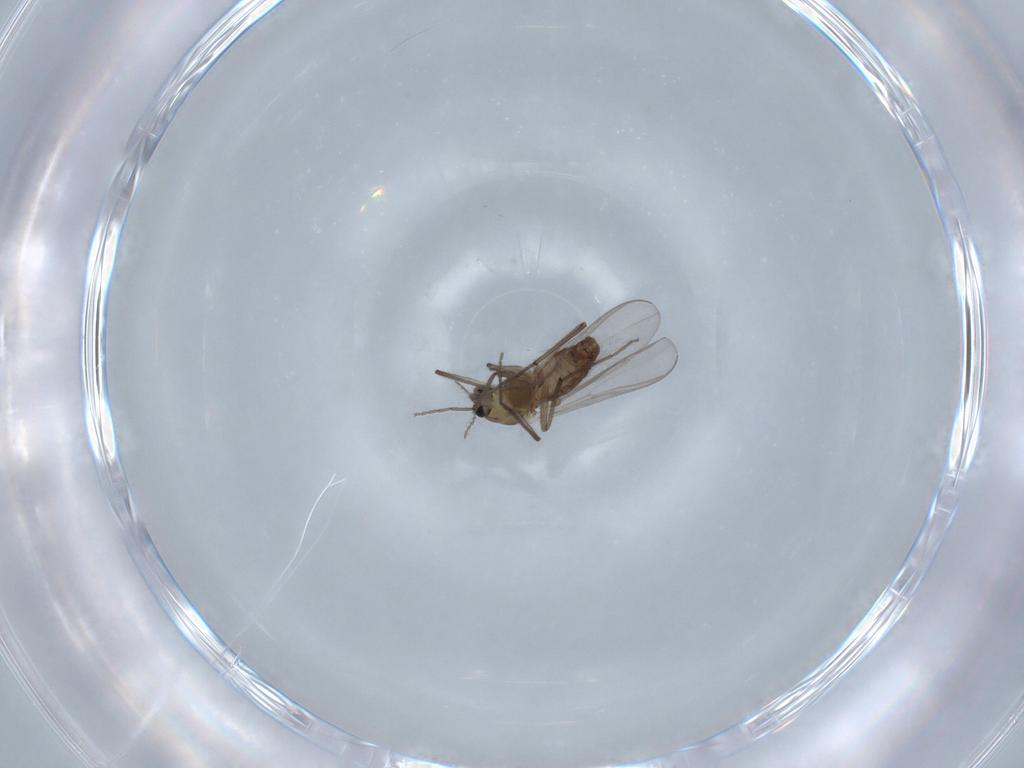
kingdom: Animalia
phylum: Arthropoda
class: Insecta
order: Diptera
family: Chironomidae
